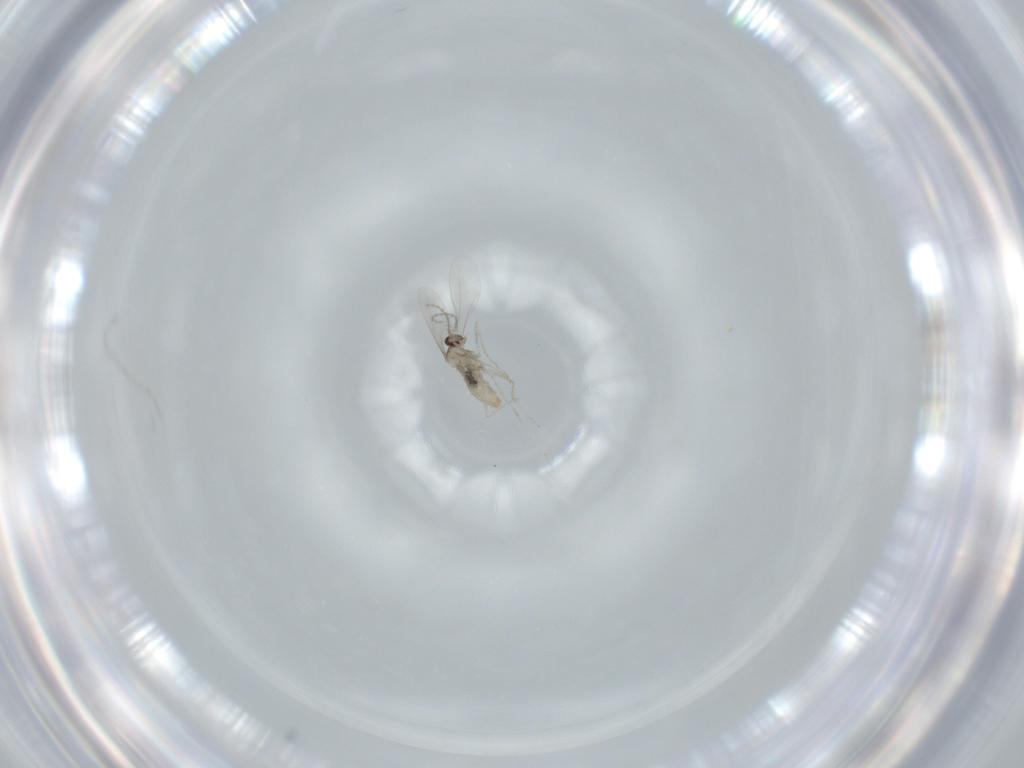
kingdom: Animalia
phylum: Arthropoda
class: Insecta
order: Diptera
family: Cecidomyiidae
